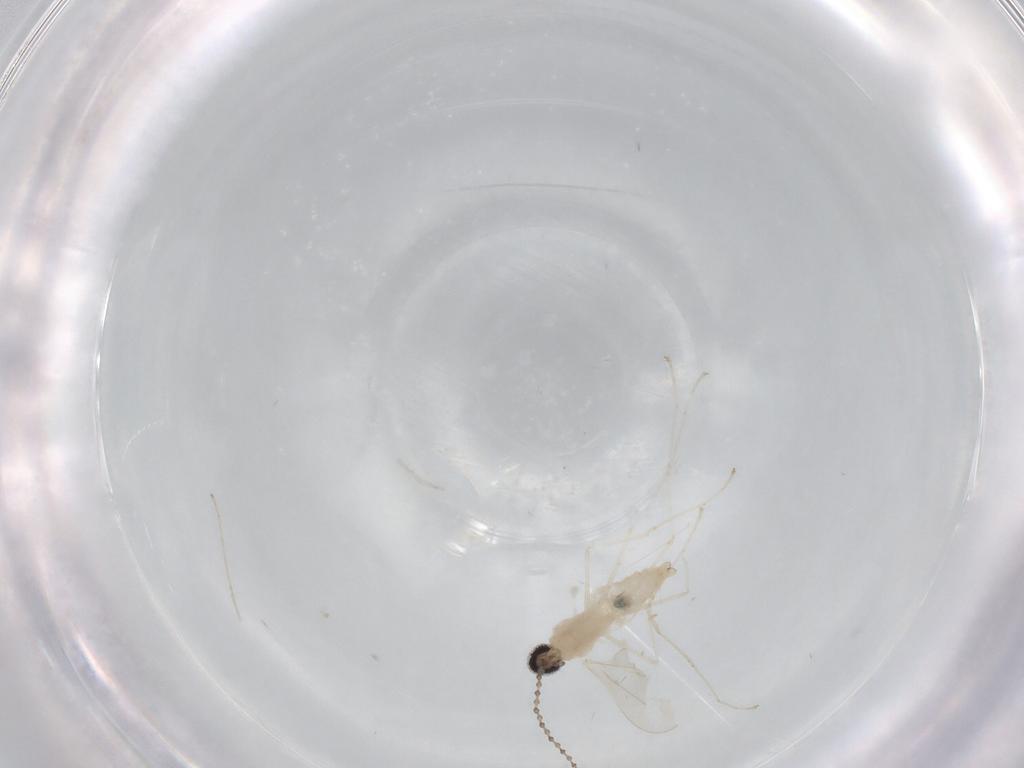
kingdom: Animalia
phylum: Arthropoda
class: Insecta
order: Diptera
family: Cecidomyiidae
